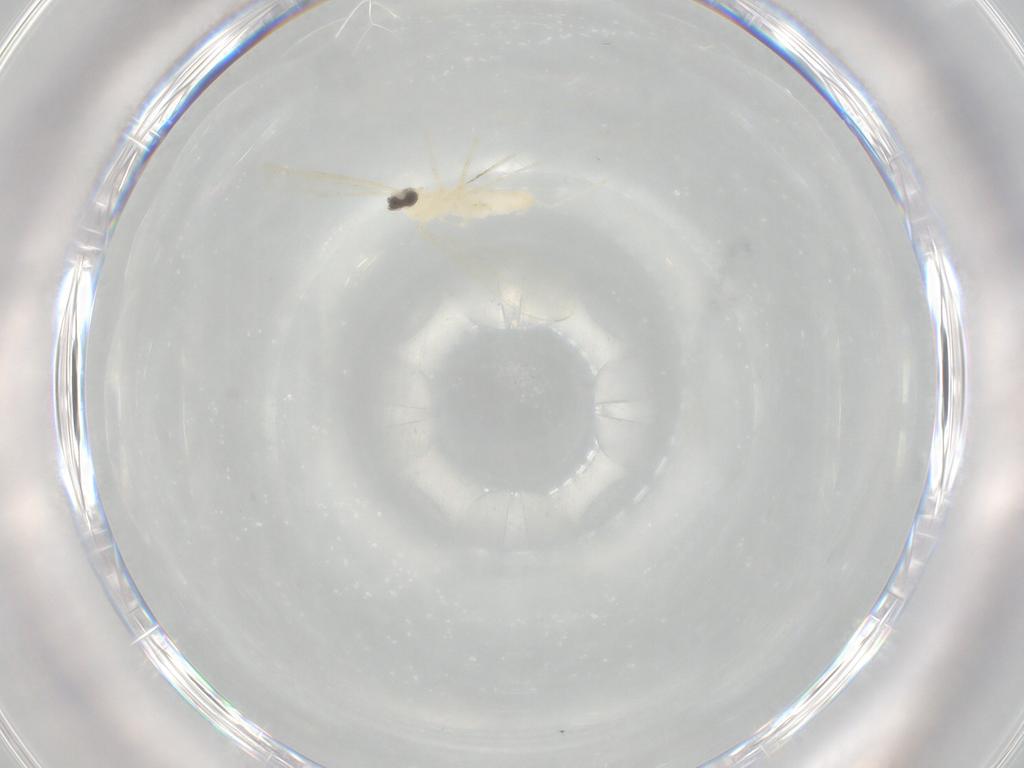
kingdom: Animalia
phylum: Arthropoda
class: Insecta
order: Diptera
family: Cecidomyiidae
